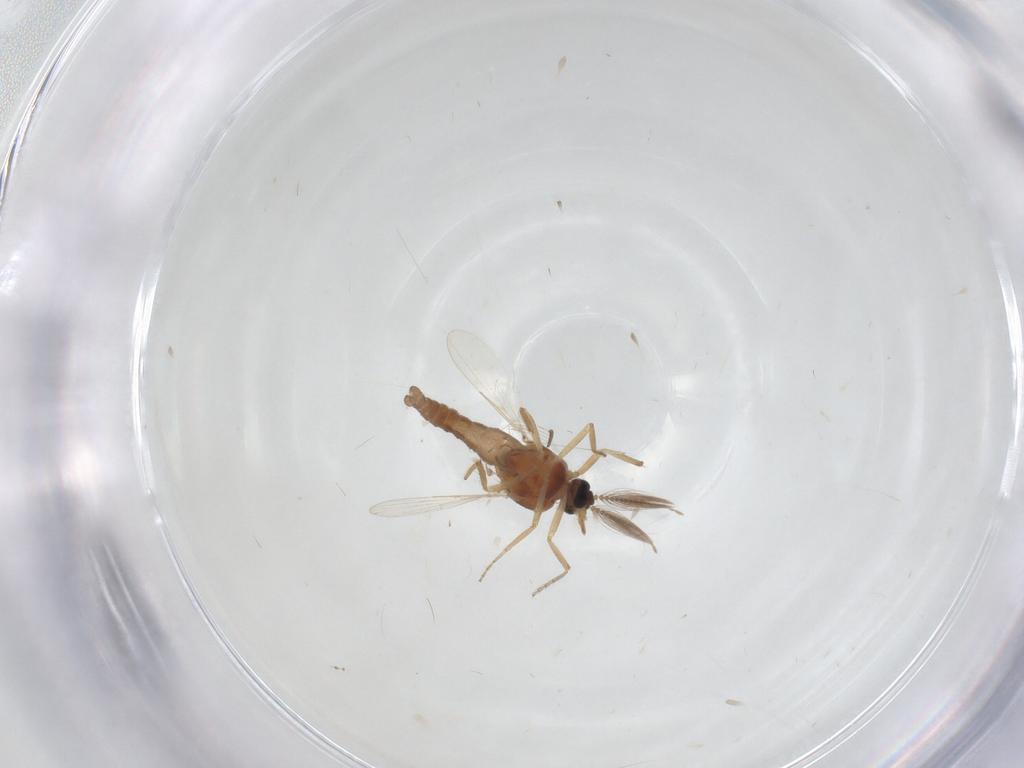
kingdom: Animalia
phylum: Arthropoda
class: Insecta
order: Diptera
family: Ceratopogonidae
